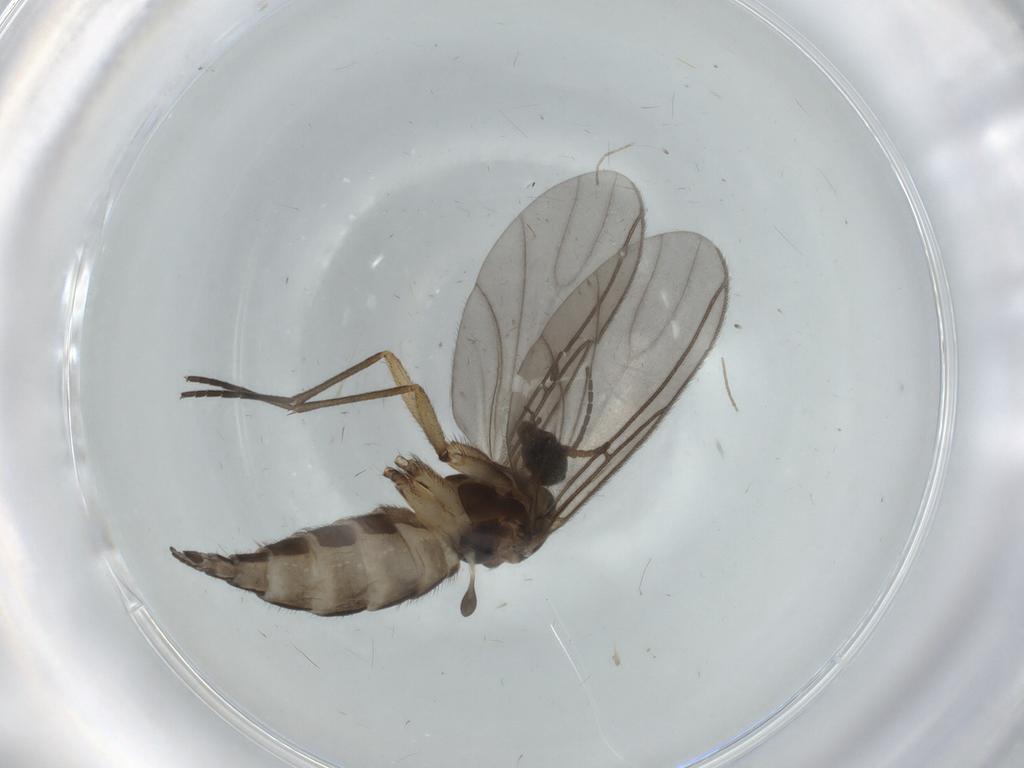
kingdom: Animalia
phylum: Arthropoda
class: Insecta
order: Diptera
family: Sciaridae
